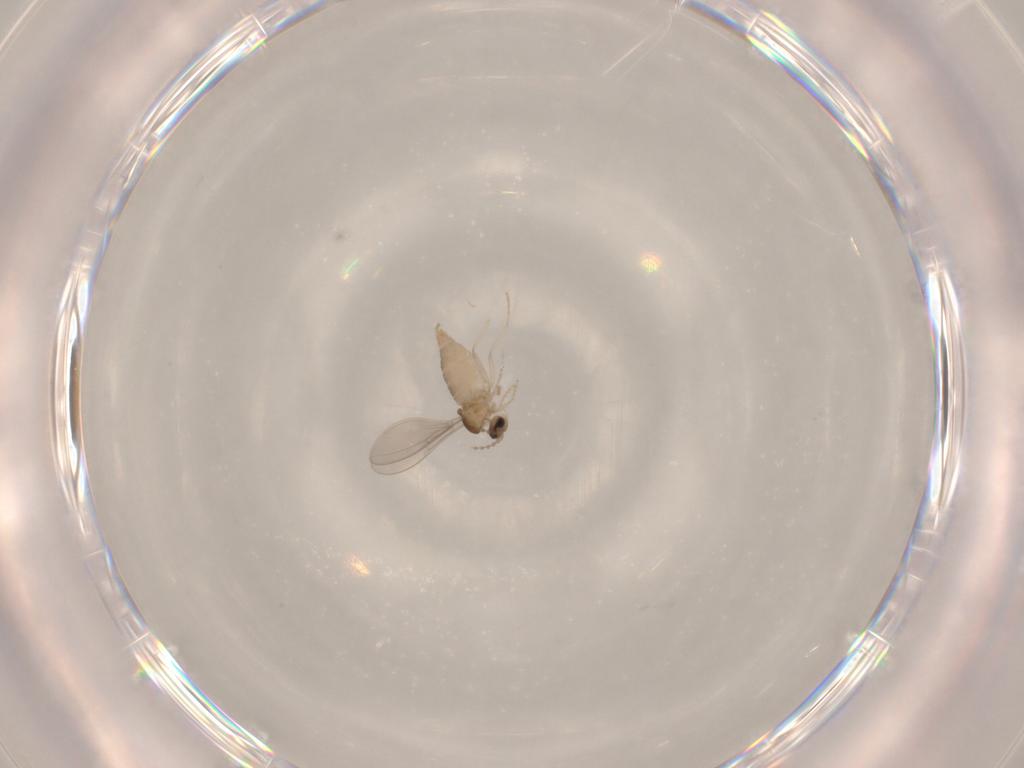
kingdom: Animalia
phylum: Arthropoda
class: Insecta
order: Diptera
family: Cecidomyiidae
